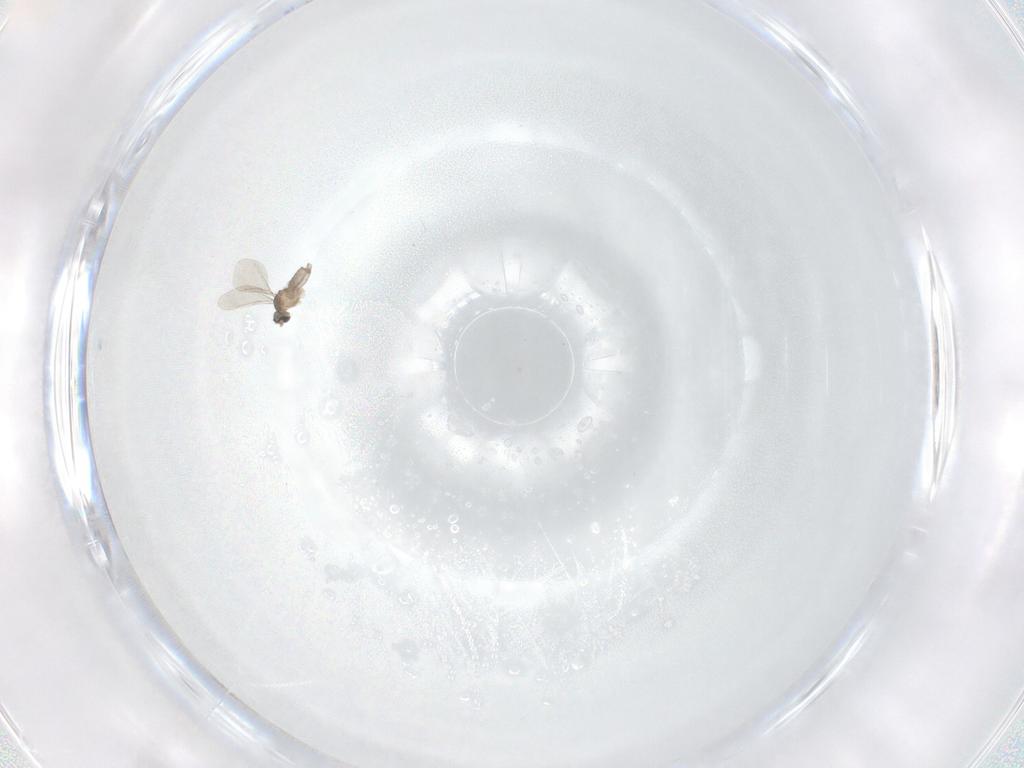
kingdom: Animalia
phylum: Arthropoda
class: Insecta
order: Diptera
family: Cecidomyiidae
